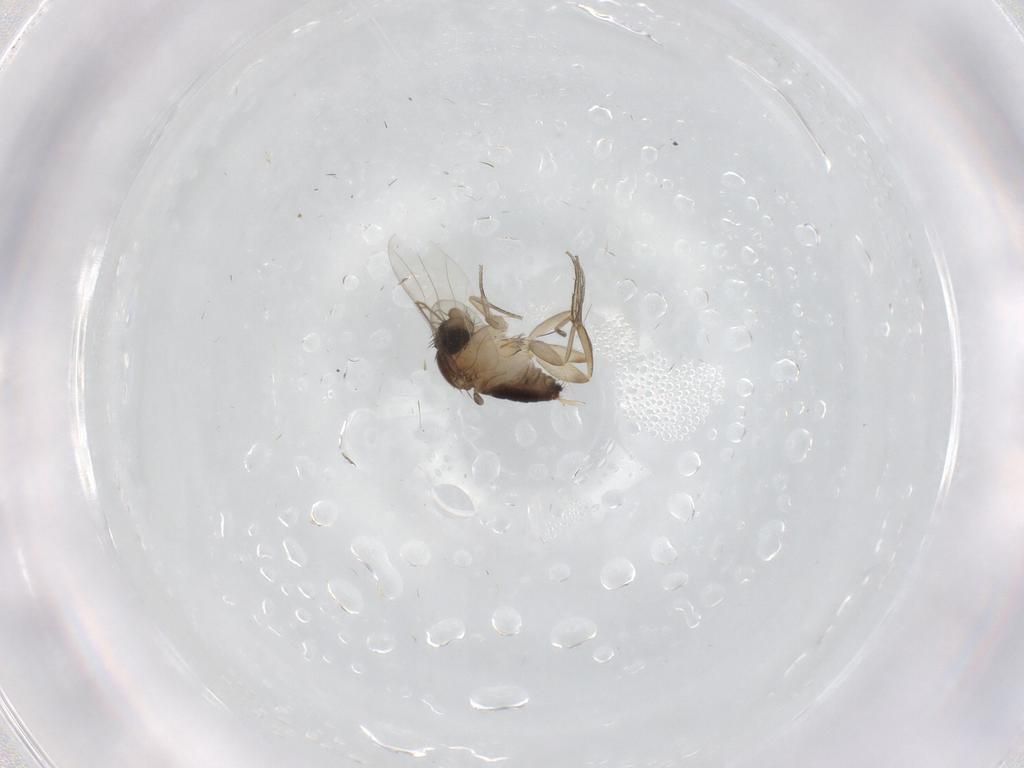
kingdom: Animalia
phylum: Arthropoda
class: Insecta
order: Diptera
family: Phoridae
